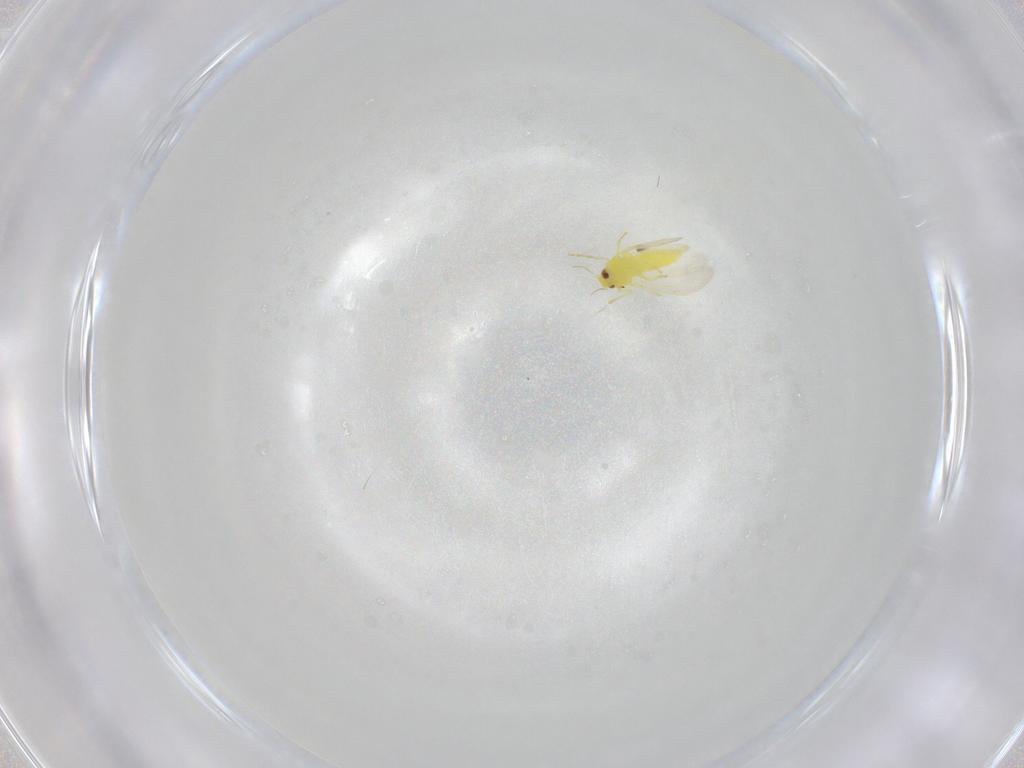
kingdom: Animalia
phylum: Arthropoda
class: Insecta
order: Hemiptera
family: Aleyrodidae
